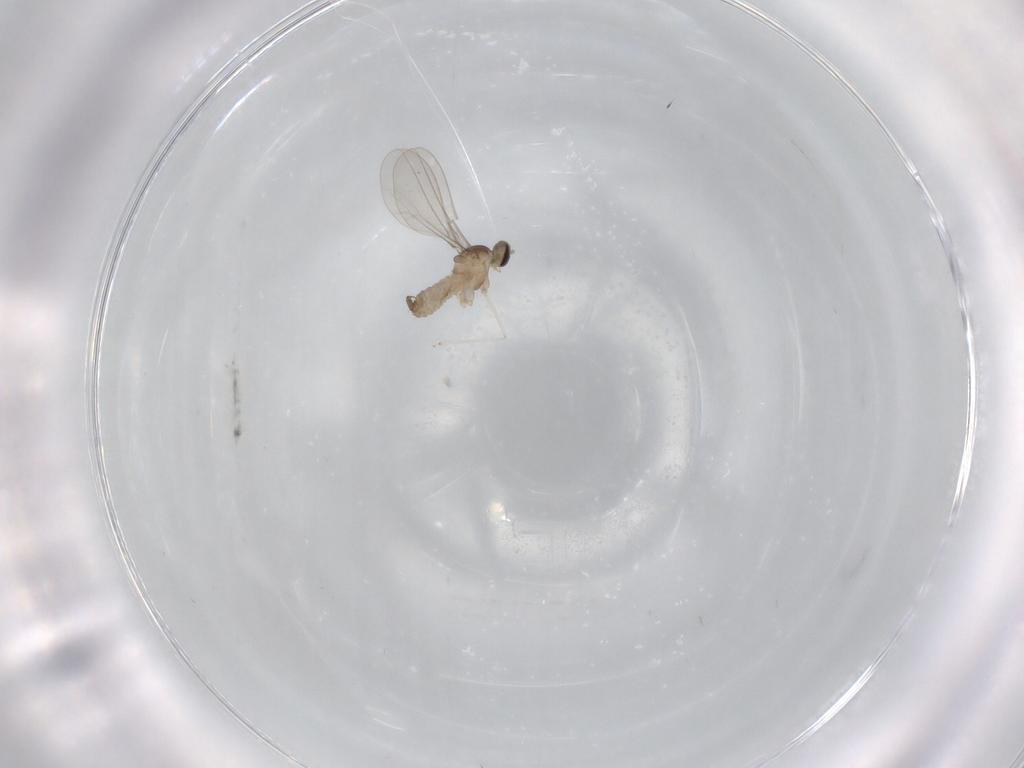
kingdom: Animalia
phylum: Arthropoda
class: Insecta
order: Diptera
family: Cecidomyiidae
